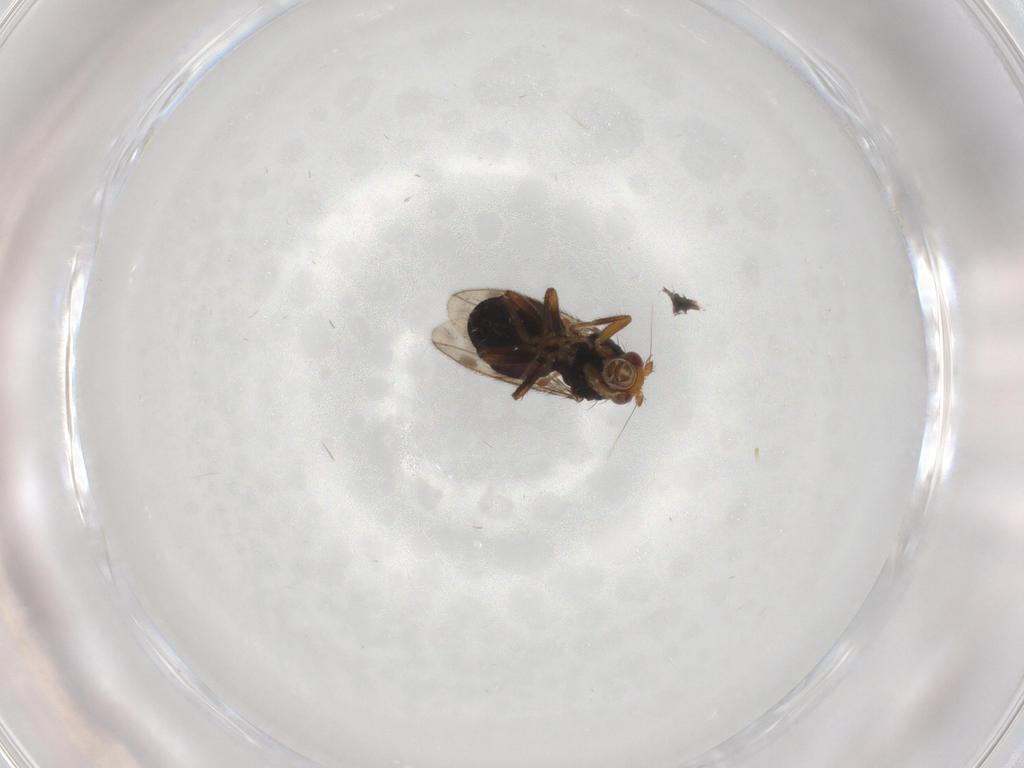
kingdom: Animalia
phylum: Arthropoda
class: Insecta
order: Diptera
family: Sphaeroceridae
